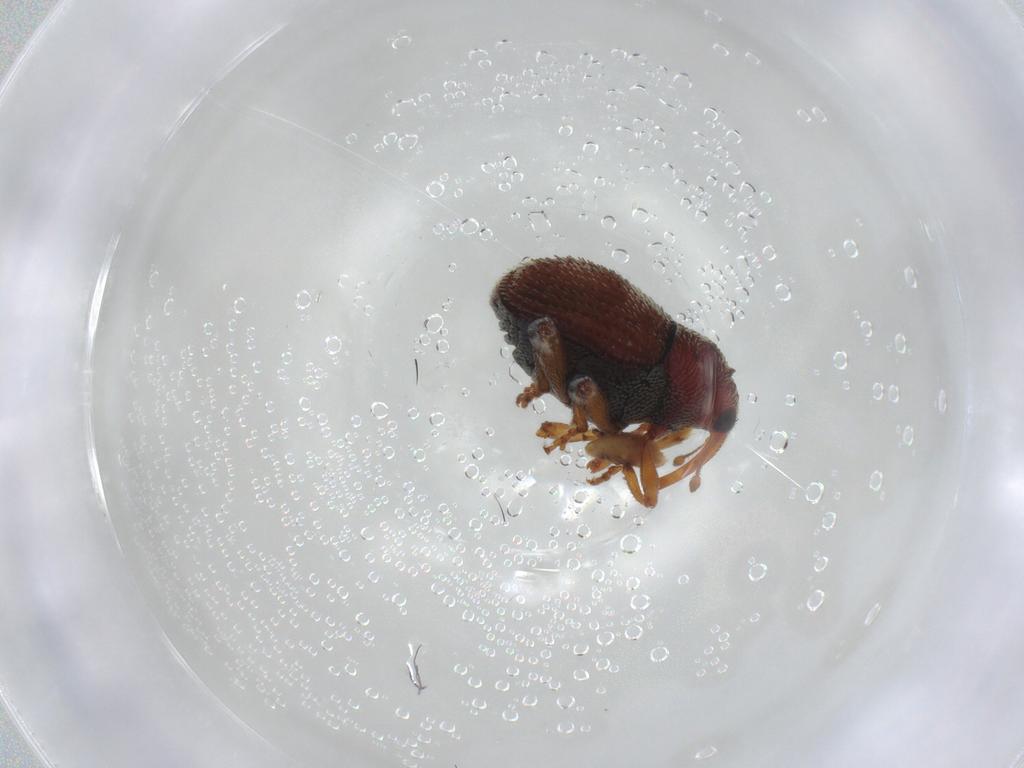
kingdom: Animalia
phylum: Arthropoda
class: Insecta
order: Coleoptera
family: Curculionidae
